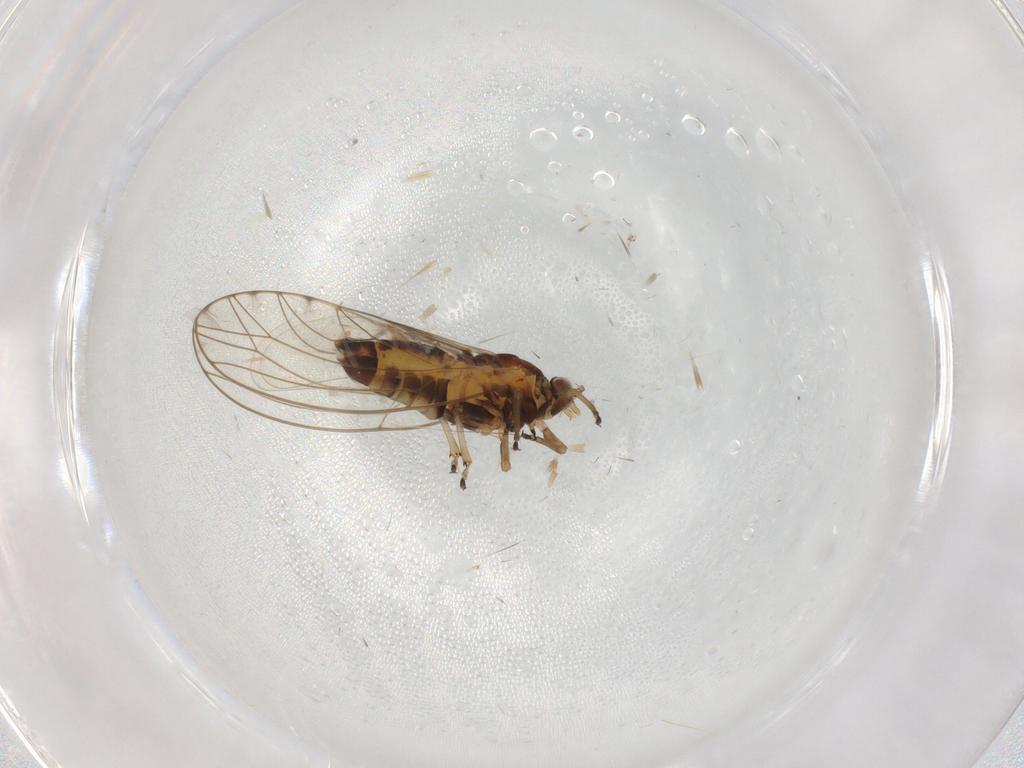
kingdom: Animalia
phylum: Arthropoda
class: Insecta
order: Hemiptera
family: Triozidae
